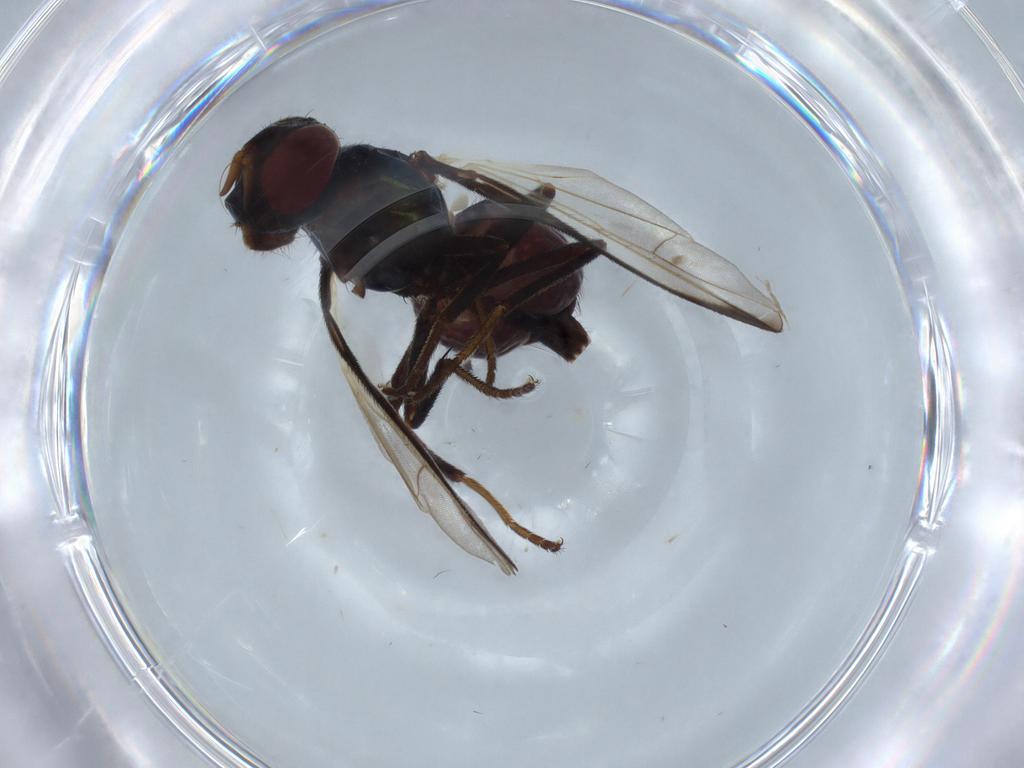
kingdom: Animalia
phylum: Arthropoda
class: Insecta
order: Diptera
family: Platystomatidae
